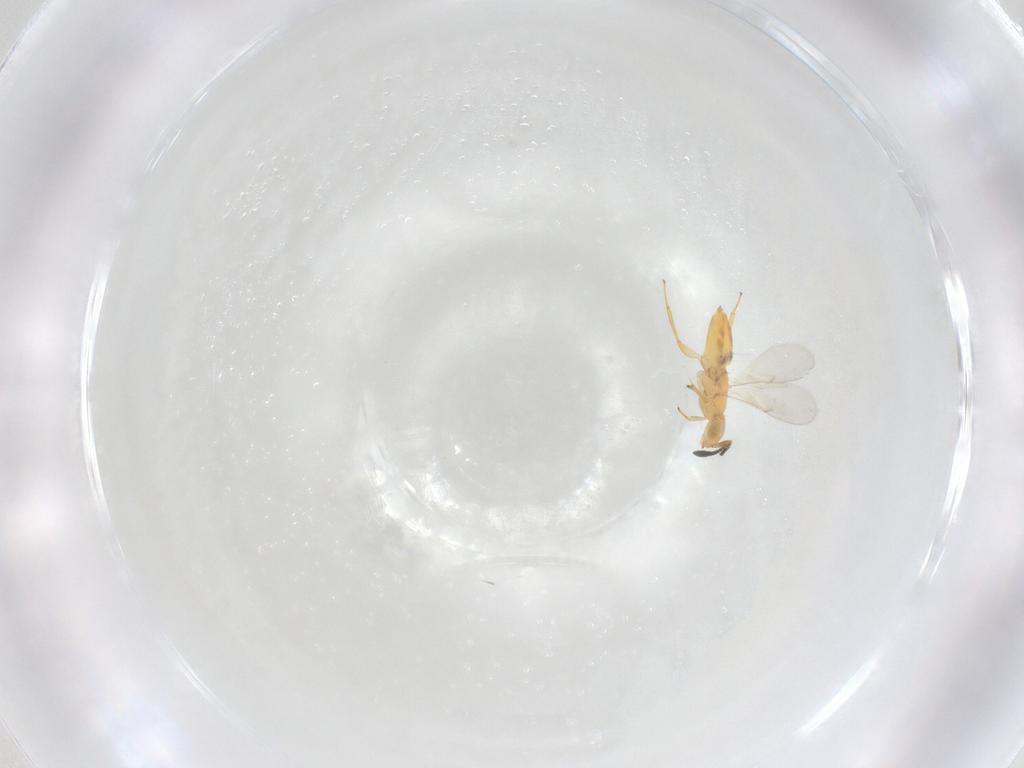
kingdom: Animalia
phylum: Arthropoda
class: Insecta
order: Hymenoptera
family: Encyrtidae
